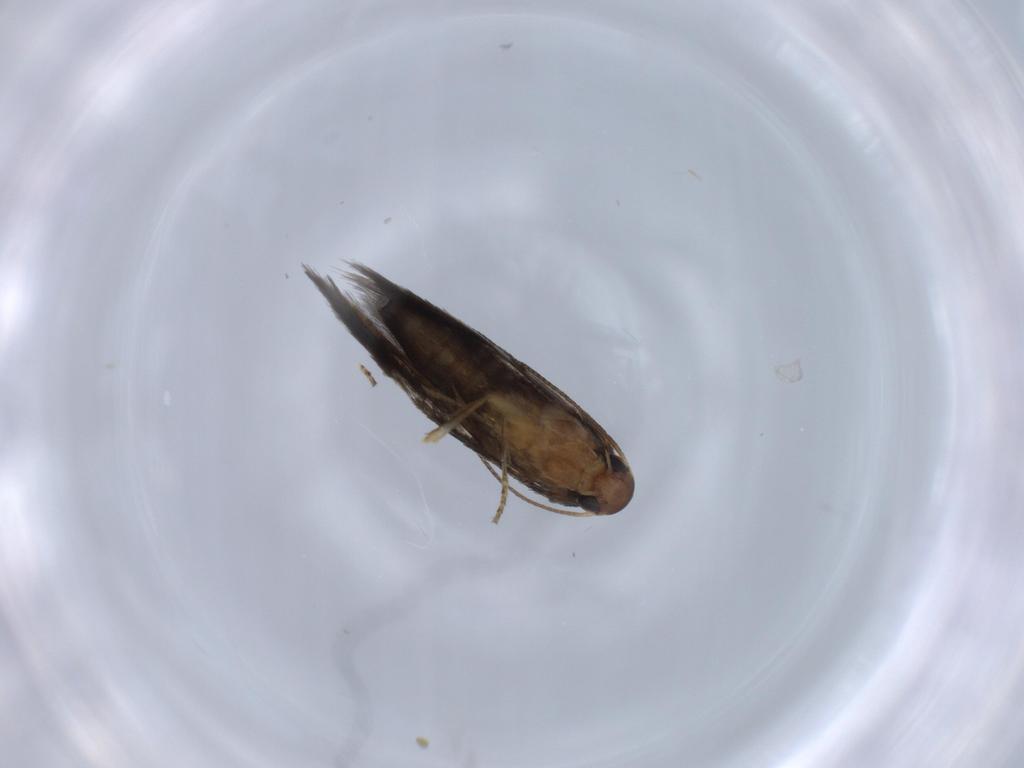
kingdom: Animalia
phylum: Arthropoda
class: Insecta
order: Lepidoptera
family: Heliozelidae
